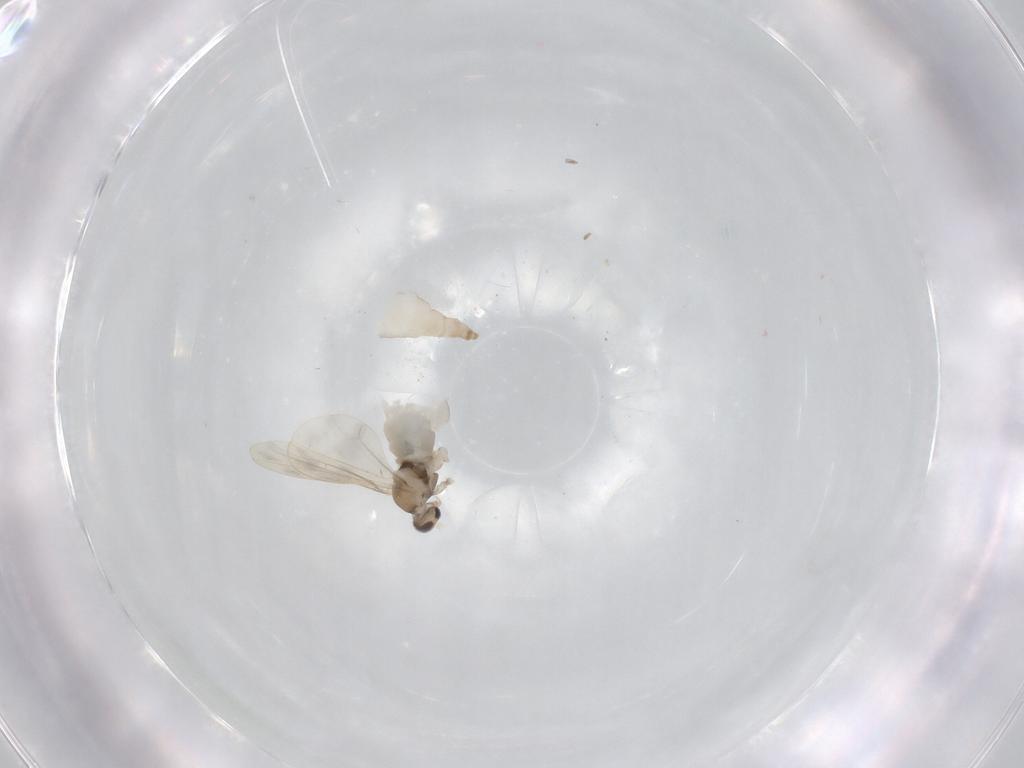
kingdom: Animalia
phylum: Arthropoda
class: Insecta
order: Diptera
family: Cecidomyiidae
